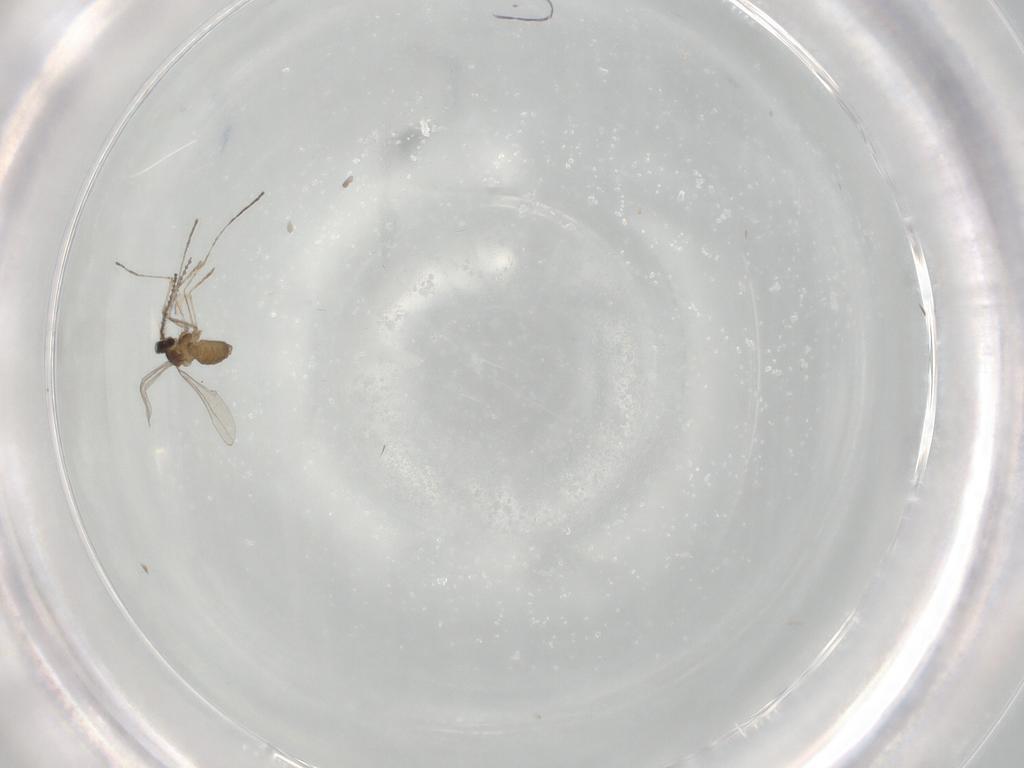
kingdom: Animalia
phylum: Arthropoda
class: Insecta
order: Diptera
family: Cecidomyiidae
